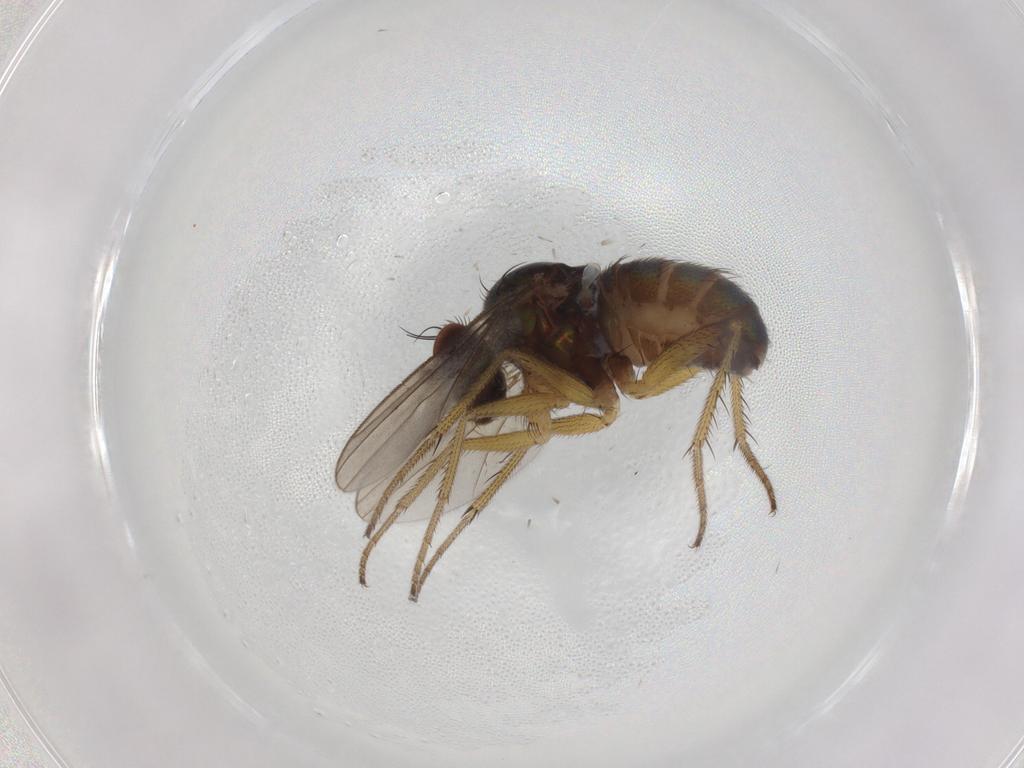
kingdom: Animalia
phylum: Arthropoda
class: Insecta
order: Diptera
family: Dolichopodidae
